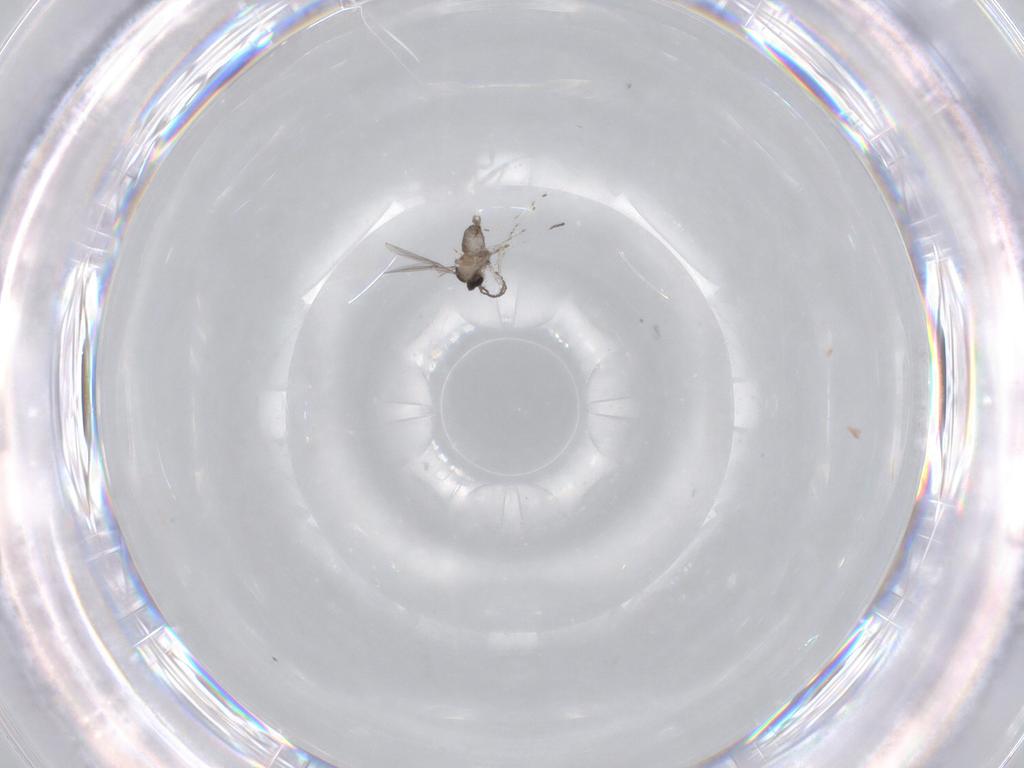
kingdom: Animalia
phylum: Arthropoda
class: Insecta
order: Diptera
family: Cecidomyiidae
